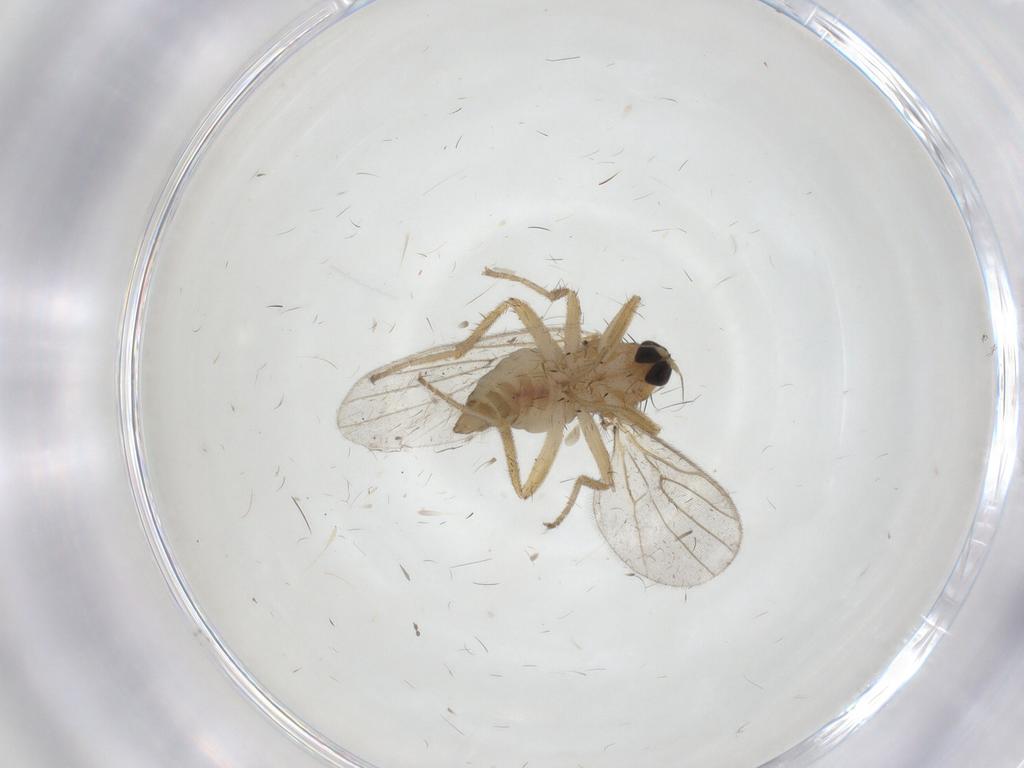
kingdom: Animalia
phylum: Arthropoda
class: Insecta
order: Diptera
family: Hybotidae
